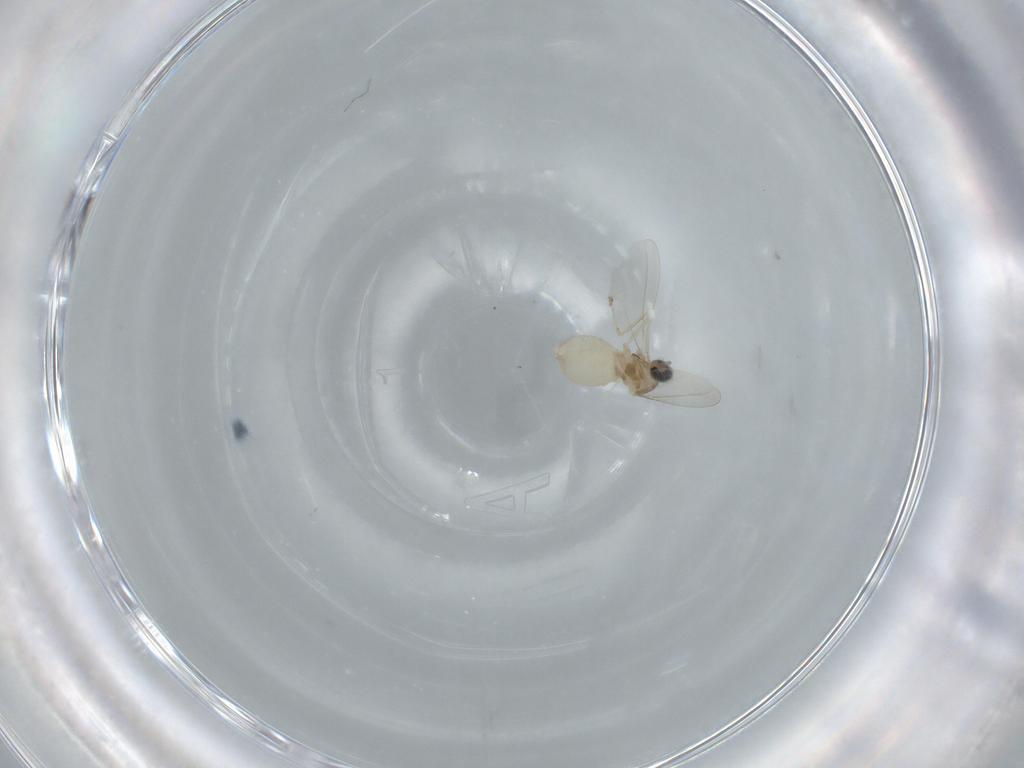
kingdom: Animalia
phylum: Arthropoda
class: Insecta
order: Diptera
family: Cecidomyiidae
